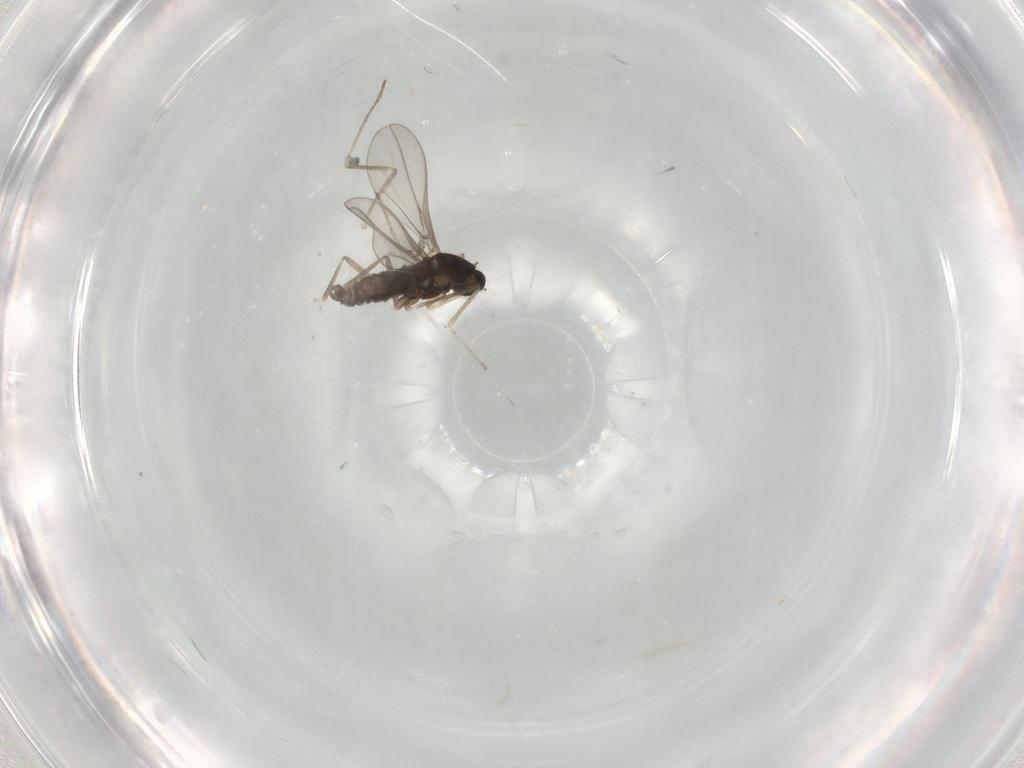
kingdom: Animalia
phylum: Arthropoda
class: Insecta
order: Diptera
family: Cecidomyiidae
